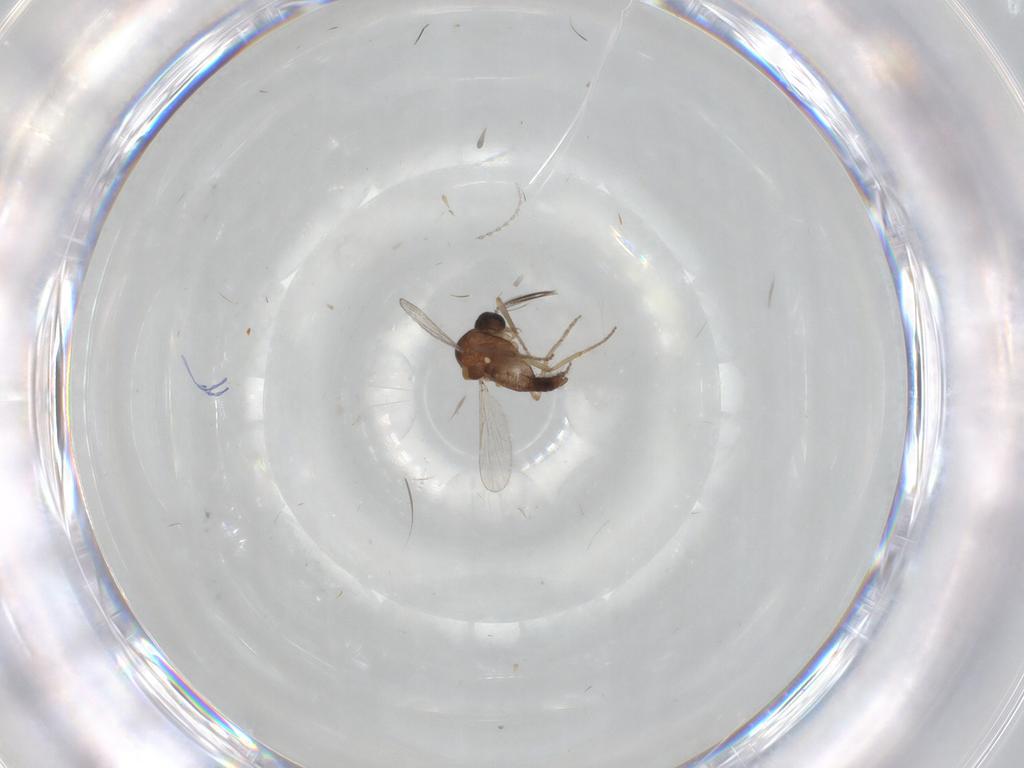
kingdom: Animalia
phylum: Arthropoda
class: Insecta
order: Diptera
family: Ceratopogonidae
